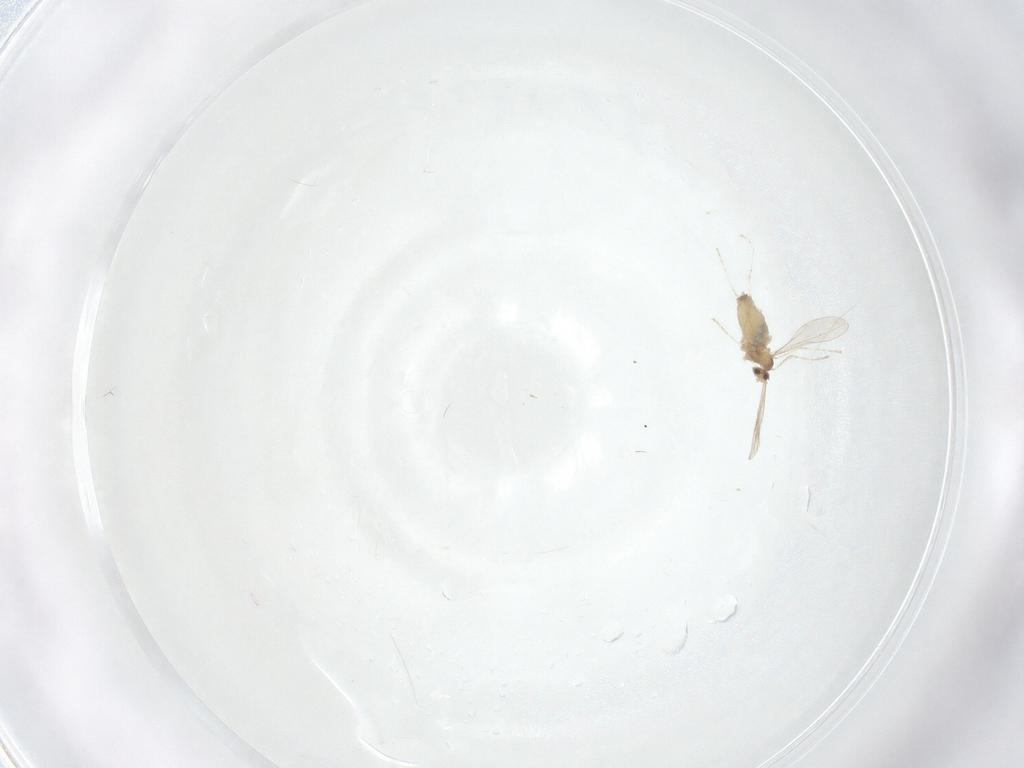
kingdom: Animalia
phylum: Arthropoda
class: Insecta
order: Diptera
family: Cecidomyiidae
